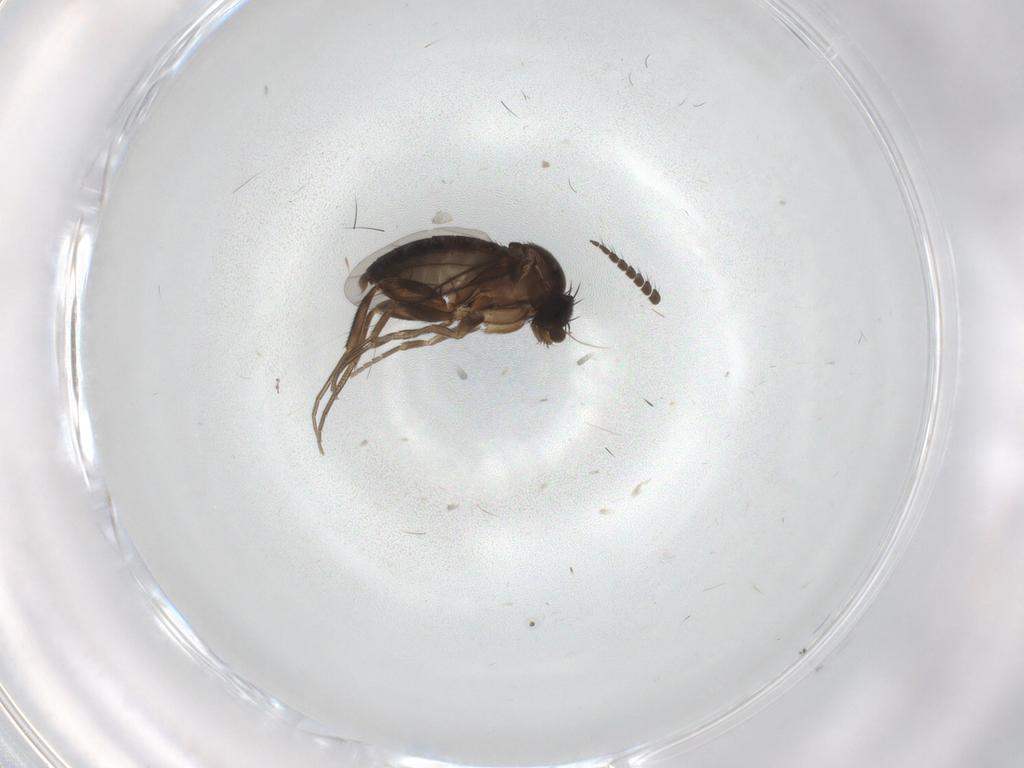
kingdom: Animalia
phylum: Arthropoda
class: Insecta
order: Diptera
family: Ditomyiidae
